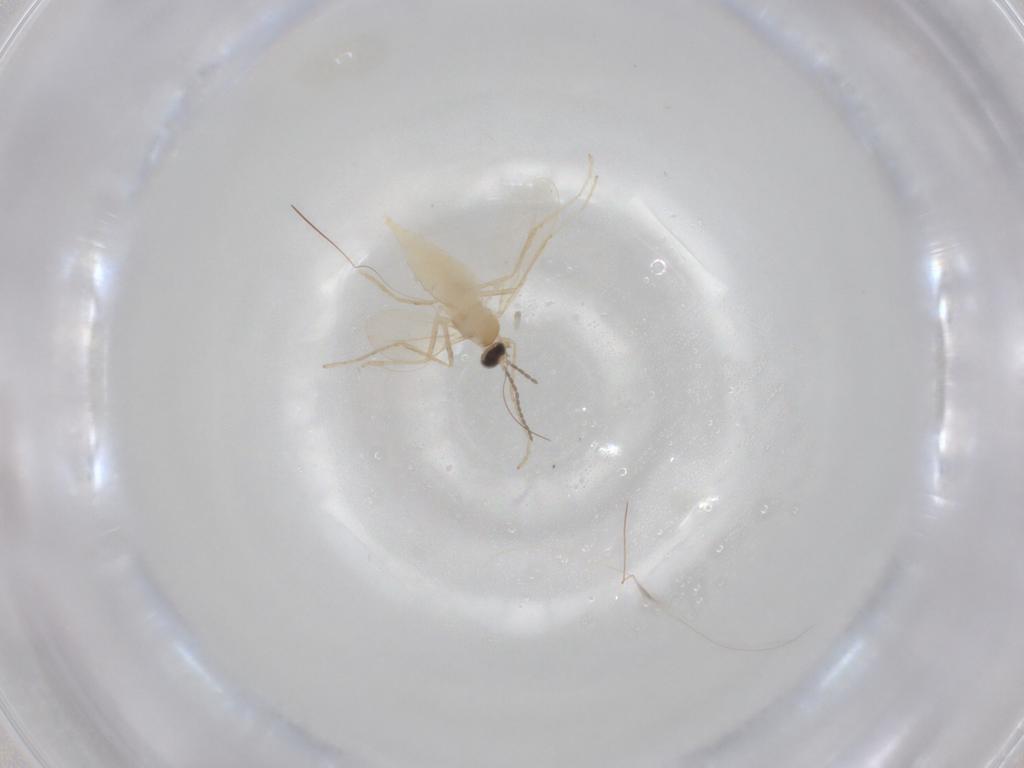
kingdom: Animalia
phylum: Arthropoda
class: Insecta
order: Diptera
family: Cecidomyiidae
